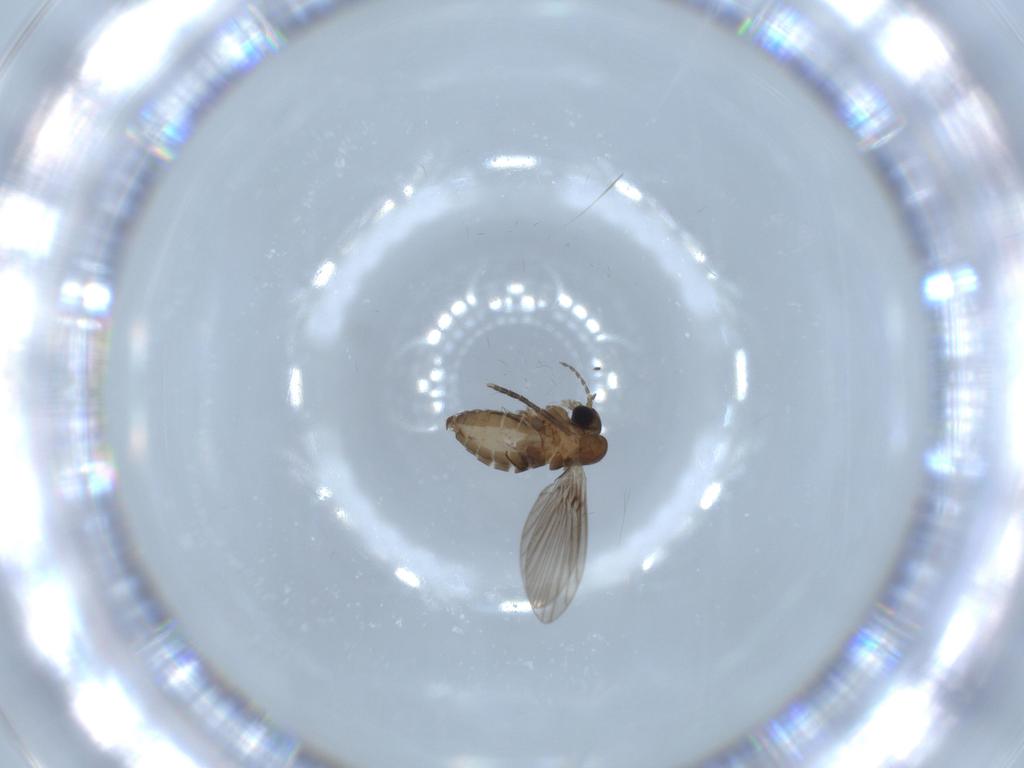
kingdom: Animalia
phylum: Arthropoda
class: Insecta
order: Diptera
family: Psychodidae
